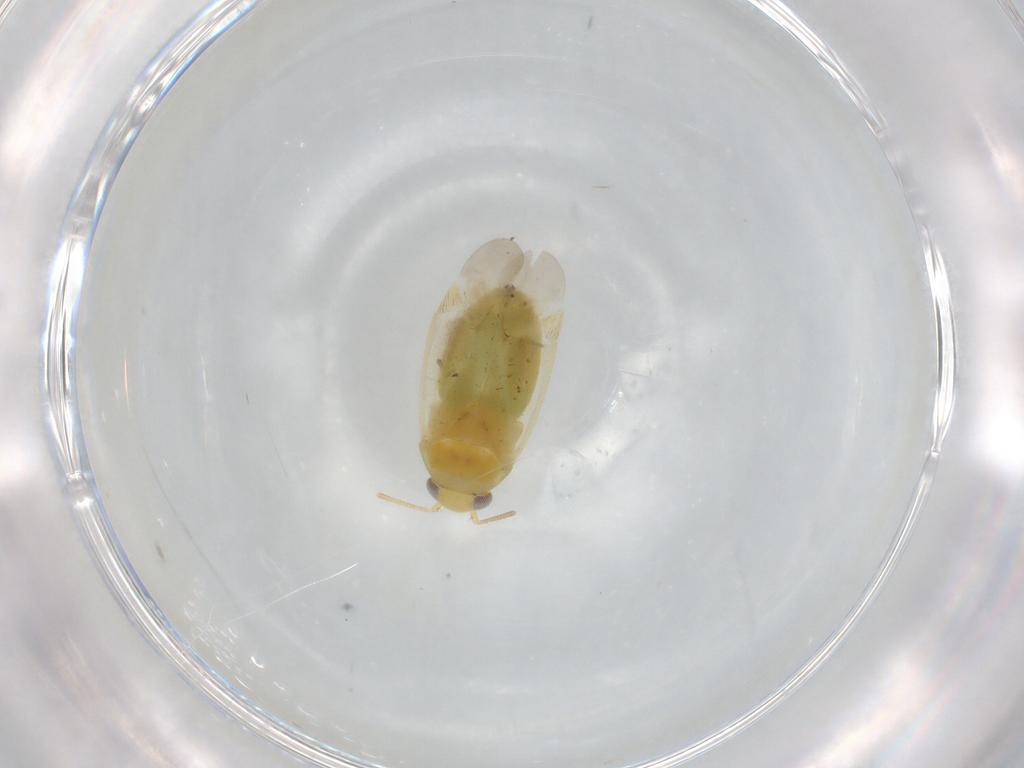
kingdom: Animalia
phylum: Arthropoda
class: Insecta
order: Hemiptera
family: Miridae
